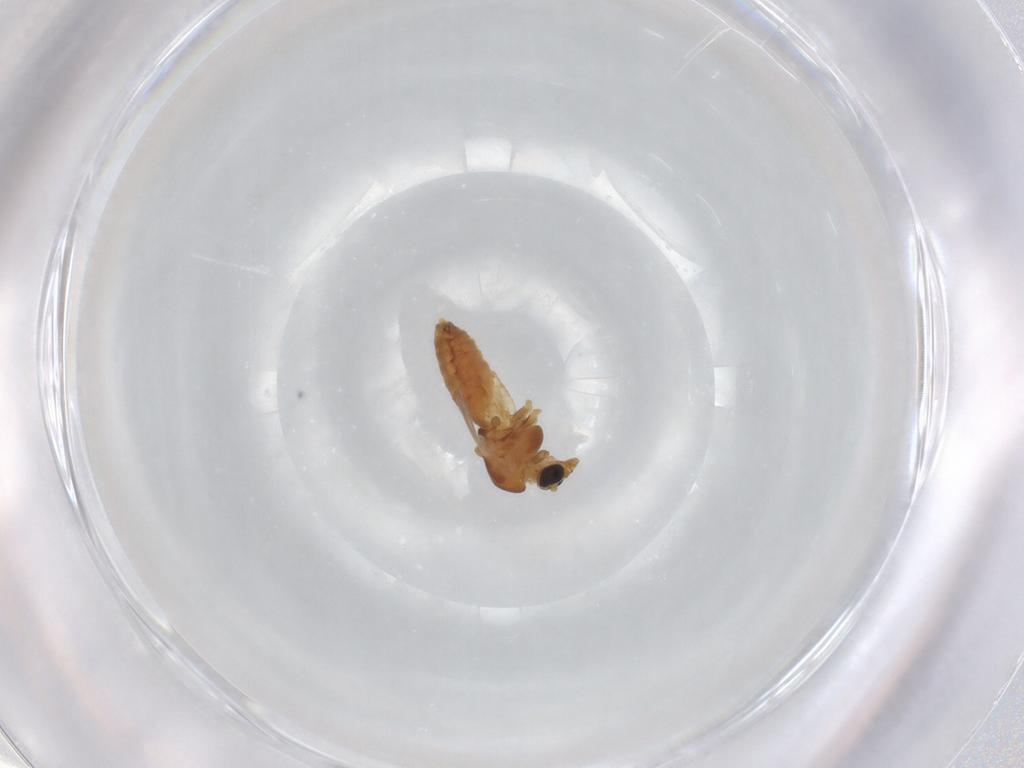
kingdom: Animalia
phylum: Arthropoda
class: Insecta
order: Diptera
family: Chironomidae
